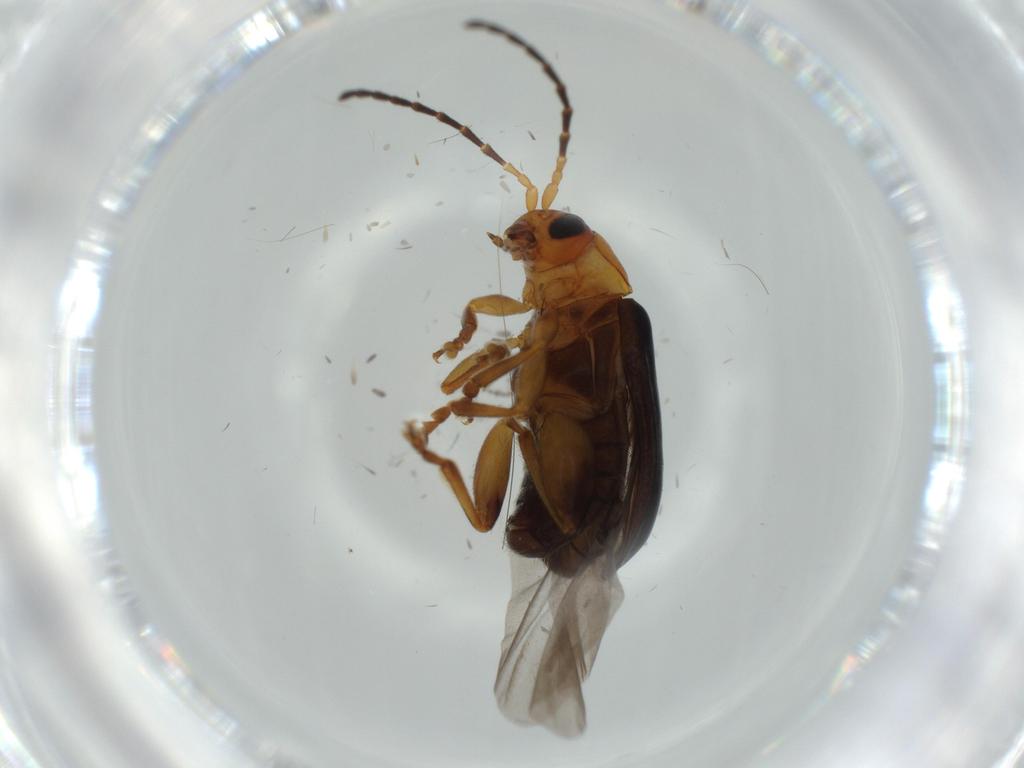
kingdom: Animalia
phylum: Arthropoda
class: Insecta
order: Coleoptera
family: Chrysomelidae
